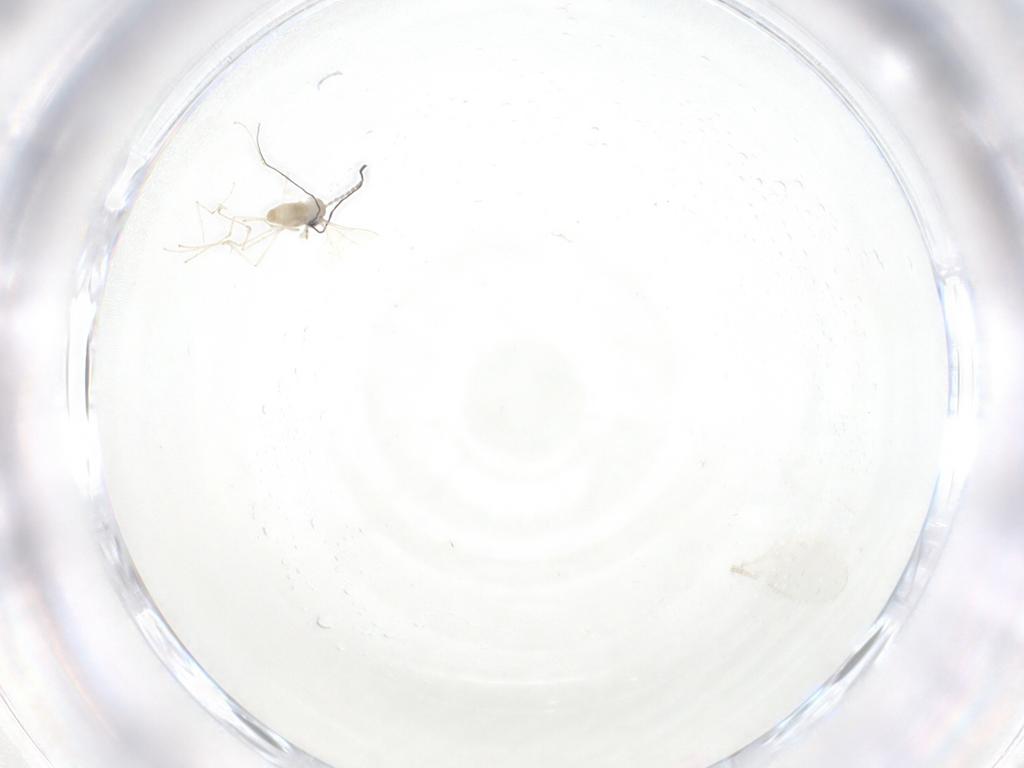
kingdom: Animalia
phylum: Arthropoda
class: Insecta
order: Diptera
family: Cecidomyiidae
